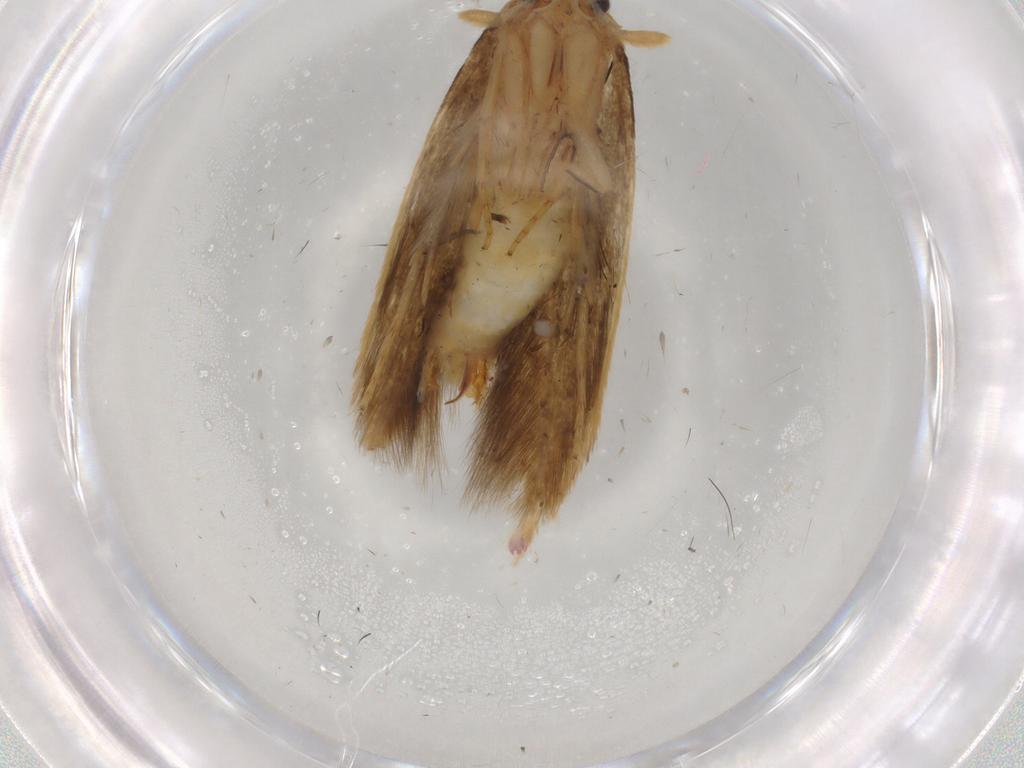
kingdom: Animalia
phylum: Arthropoda
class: Insecta
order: Lepidoptera
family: Tineidae
